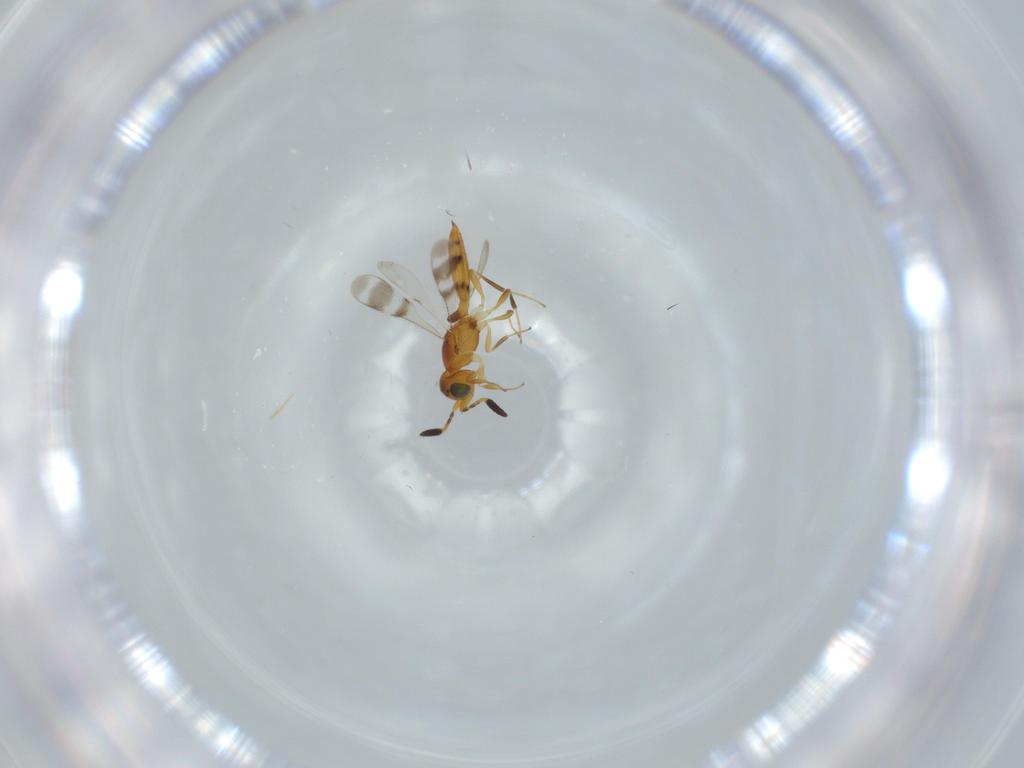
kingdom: Animalia
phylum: Arthropoda
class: Insecta
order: Hymenoptera
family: Scelionidae
